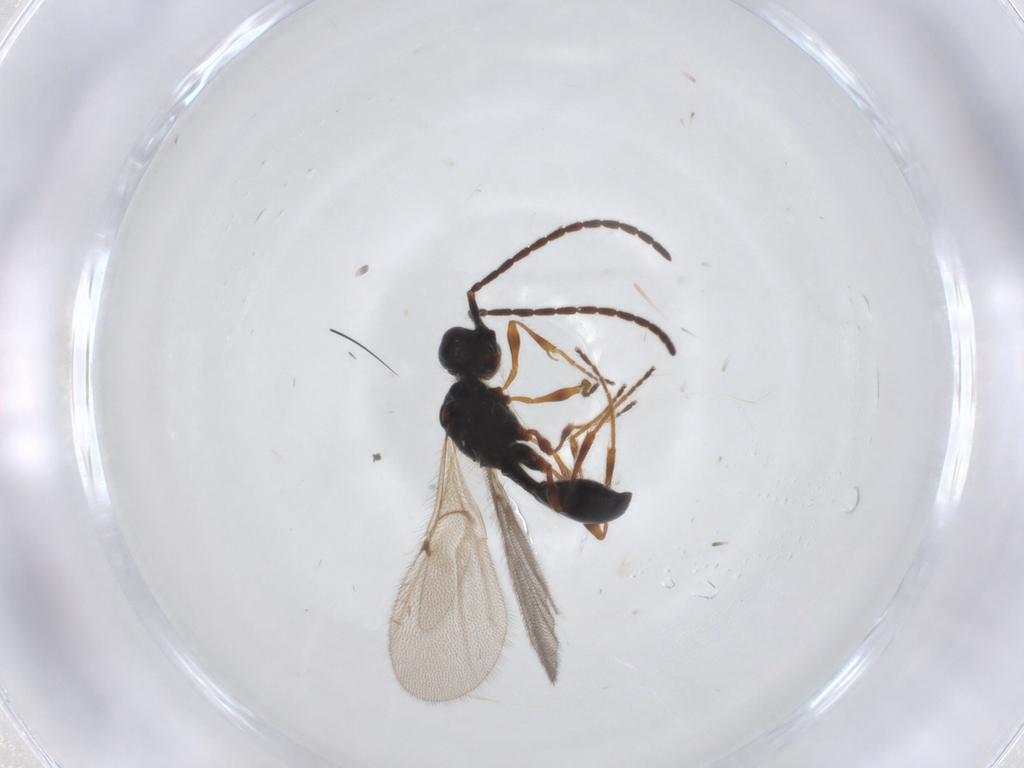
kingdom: Animalia
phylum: Arthropoda
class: Insecta
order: Hymenoptera
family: Diapriidae
